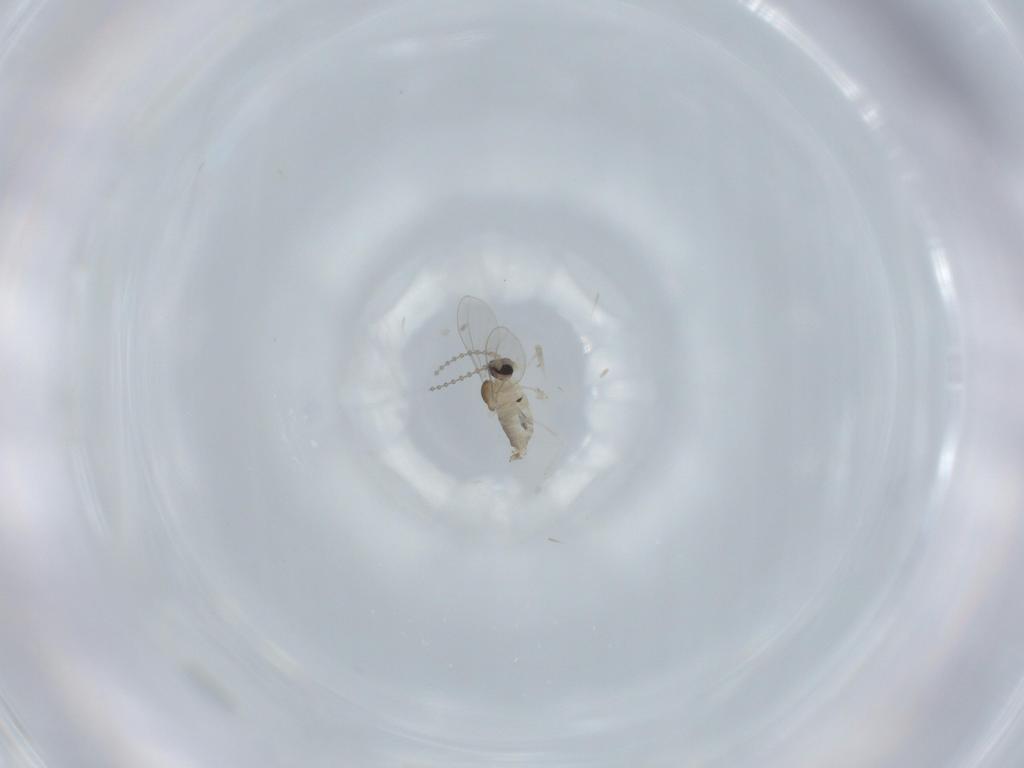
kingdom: Animalia
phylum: Arthropoda
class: Insecta
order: Diptera
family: Cecidomyiidae
